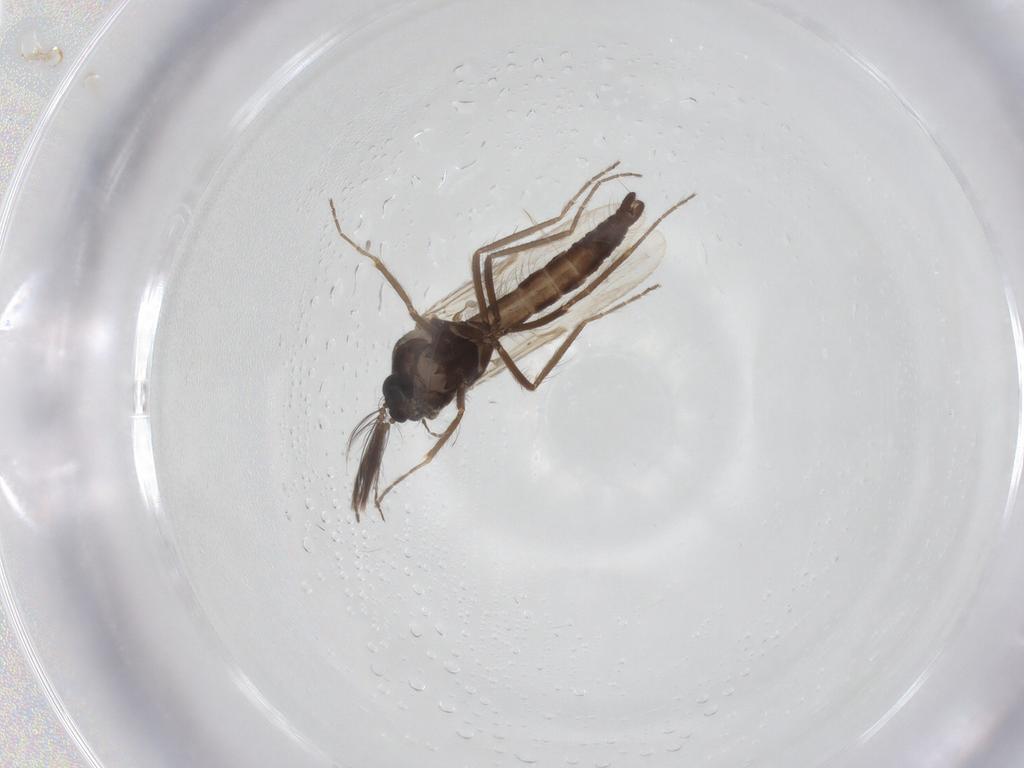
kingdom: Animalia
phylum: Arthropoda
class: Insecta
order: Diptera
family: Ceratopogonidae
